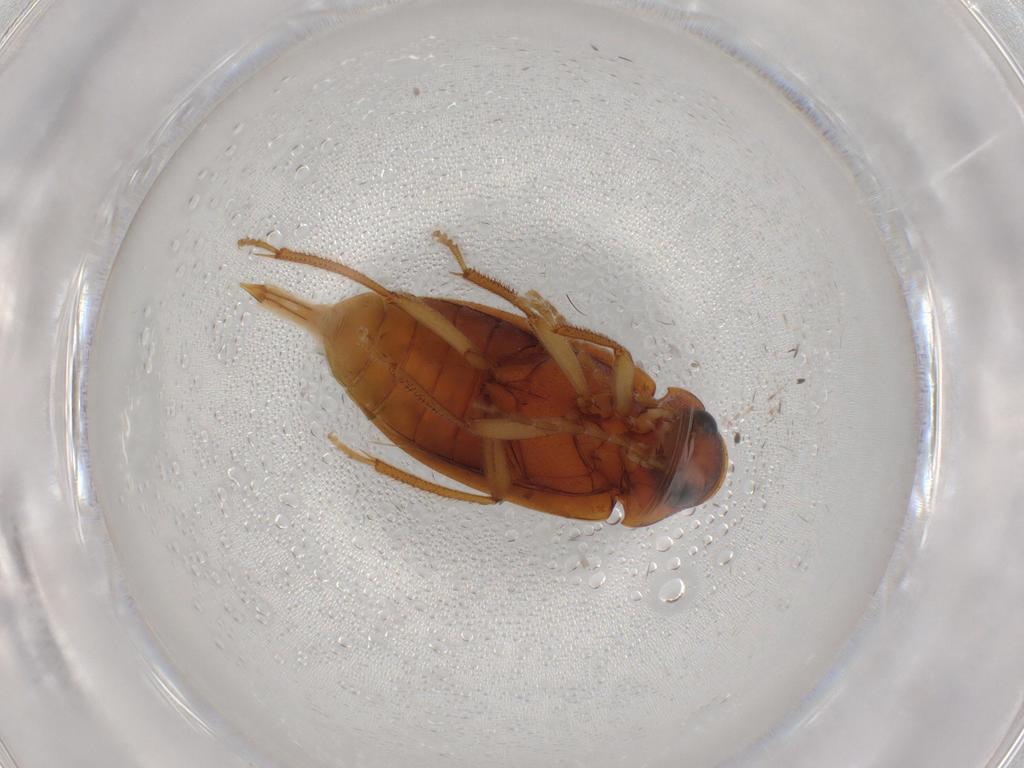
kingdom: Animalia
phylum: Arthropoda
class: Insecta
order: Coleoptera
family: Ptilodactylidae
